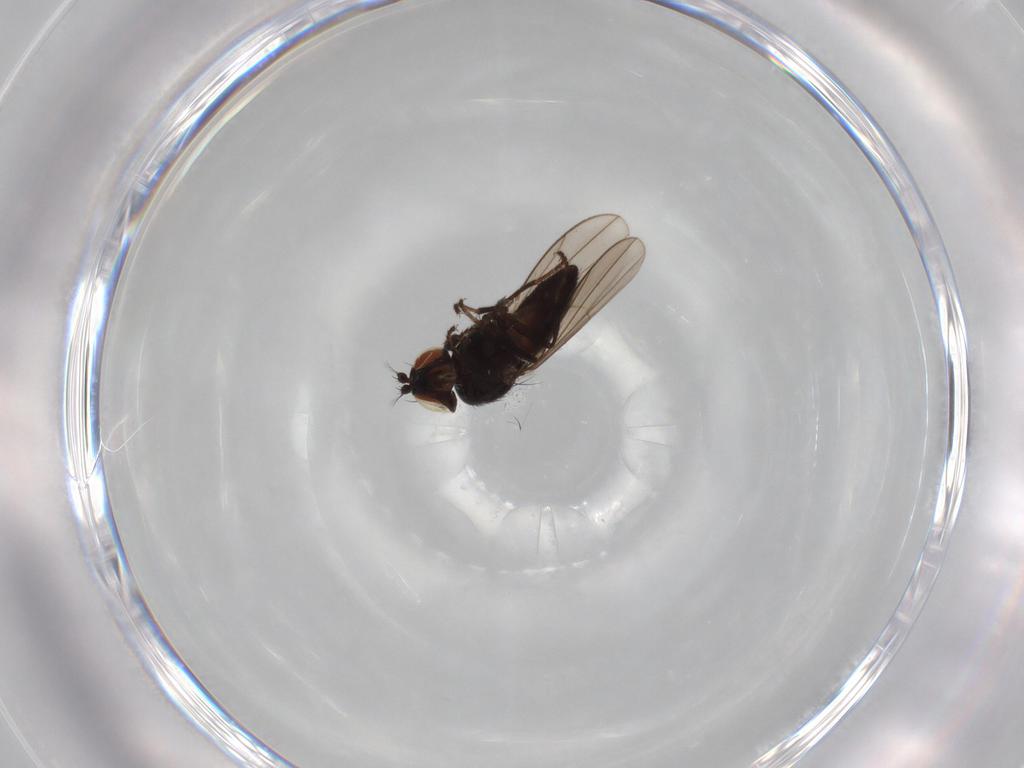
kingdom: Animalia
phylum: Arthropoda
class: Insecta
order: Diptera
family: Ephydridae
